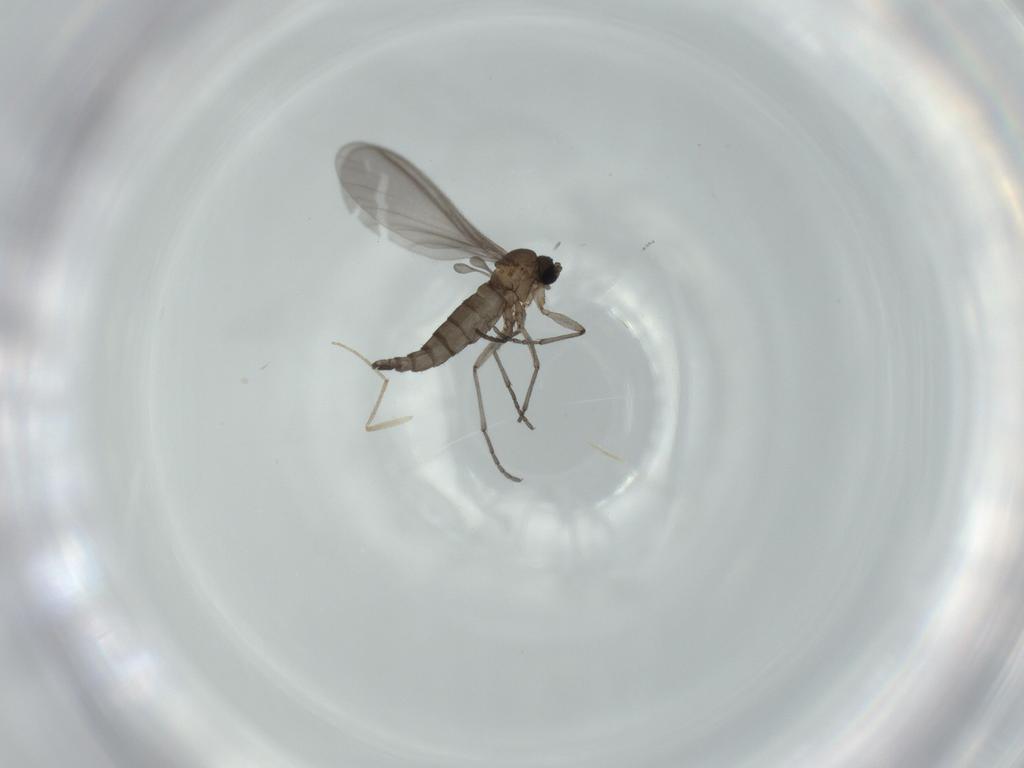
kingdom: Animalia
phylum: Arthropoda
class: Insecta
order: Diptera
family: Sciaridae
